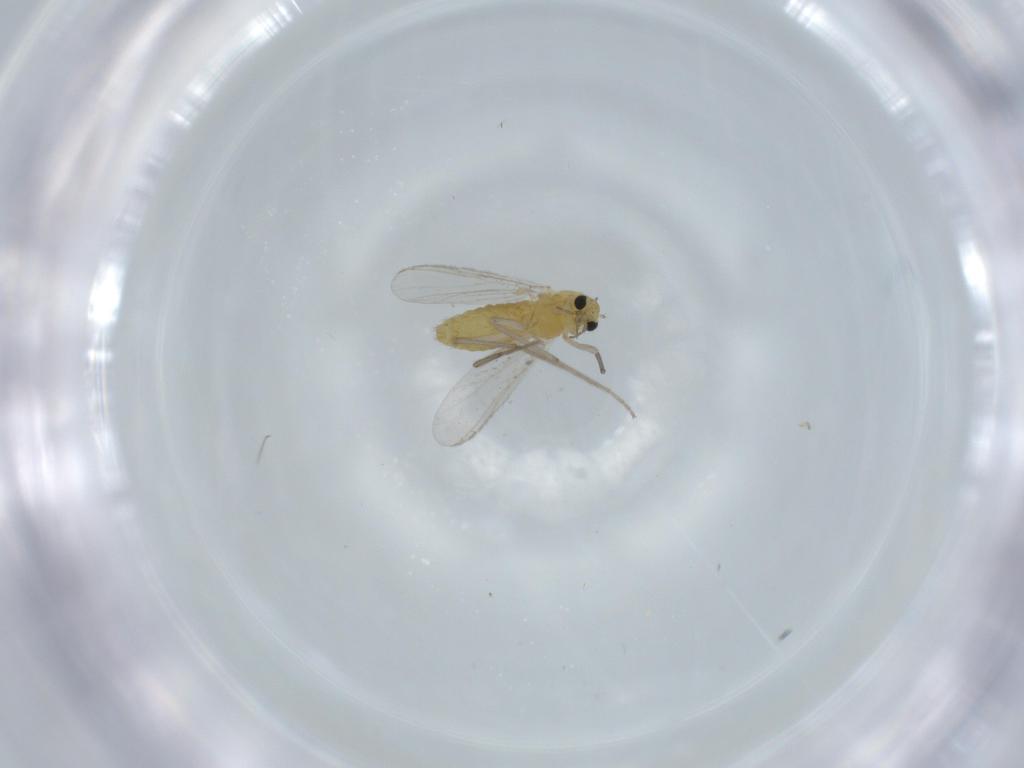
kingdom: Animalia
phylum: Arthropoda
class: Insecta
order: Diptera
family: Chironomidae
